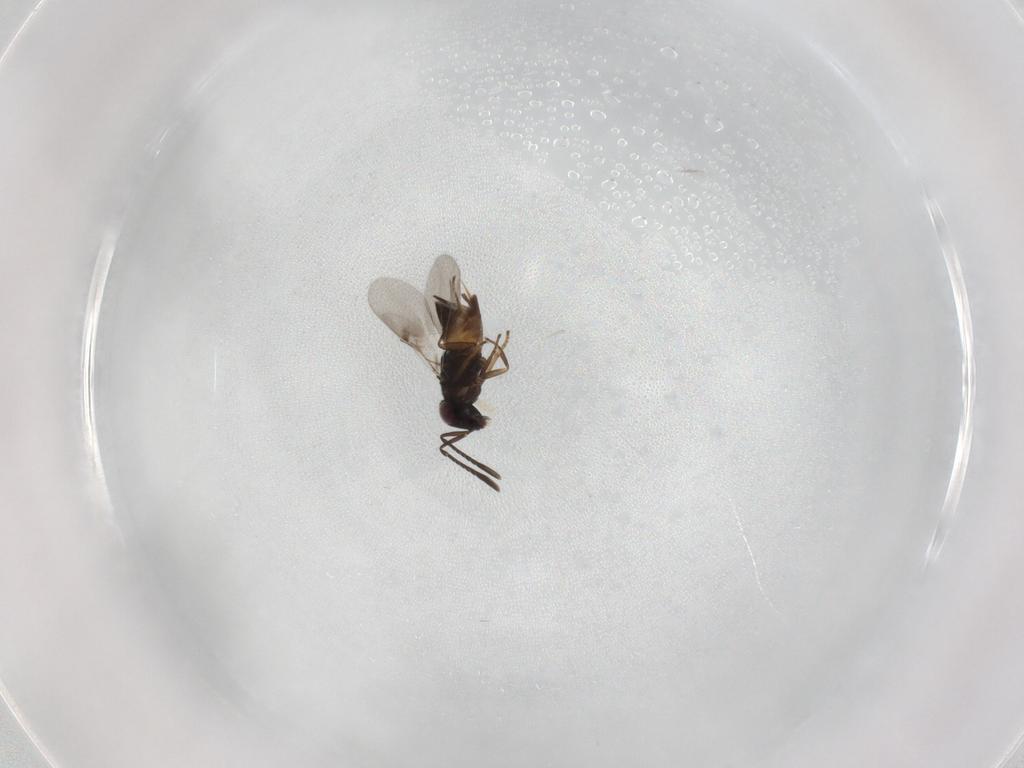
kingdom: Animalia
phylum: Arthropoda
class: Insecta
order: Hymenoptera
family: Encyrtidae
